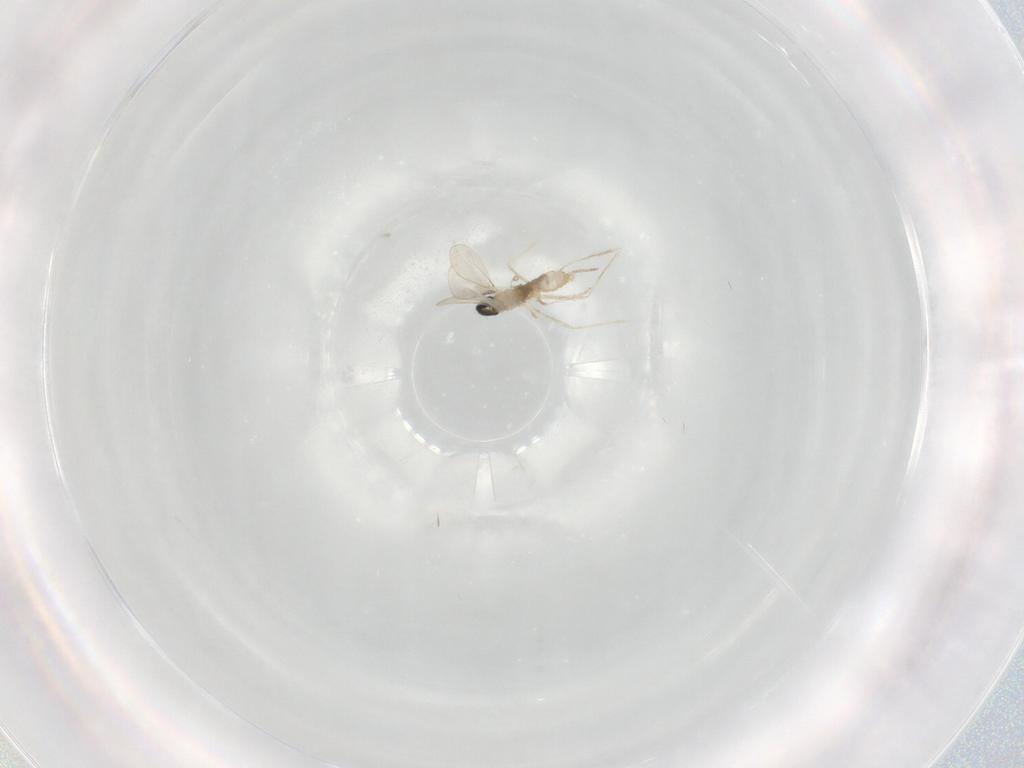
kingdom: Animalia
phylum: Arthropoda
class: Insecta
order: Diptera
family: Cecidomyiidae
